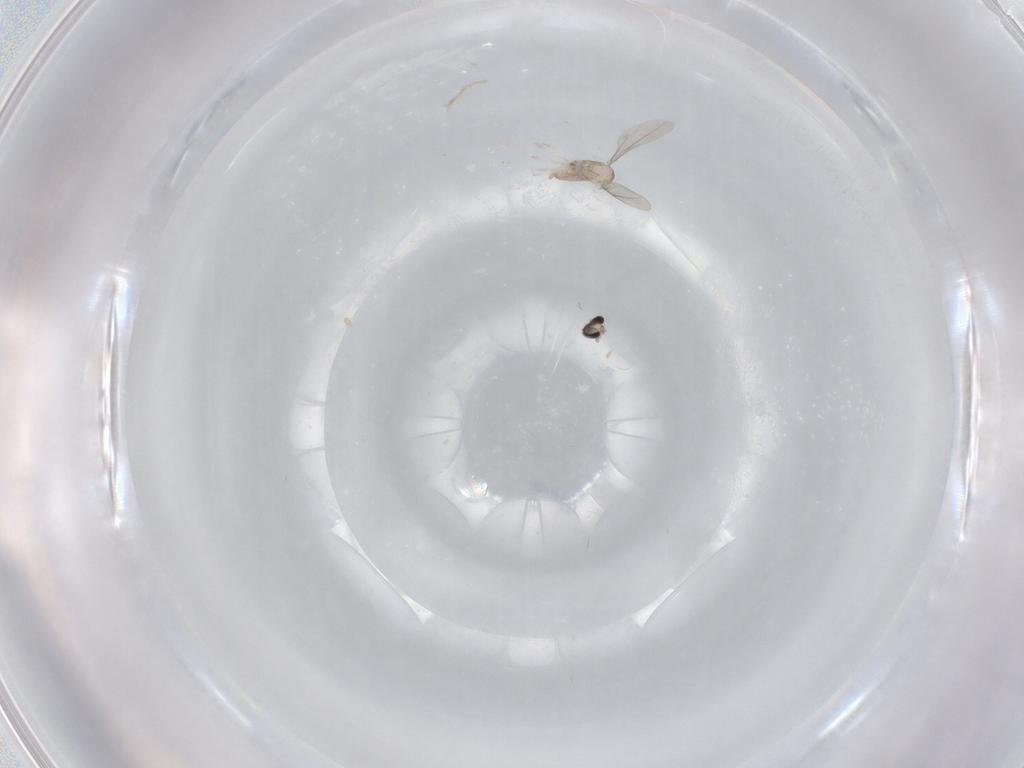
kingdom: Animalia
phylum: Arthropoda
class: Insecta
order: Diptera
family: Cecidomyiidae
